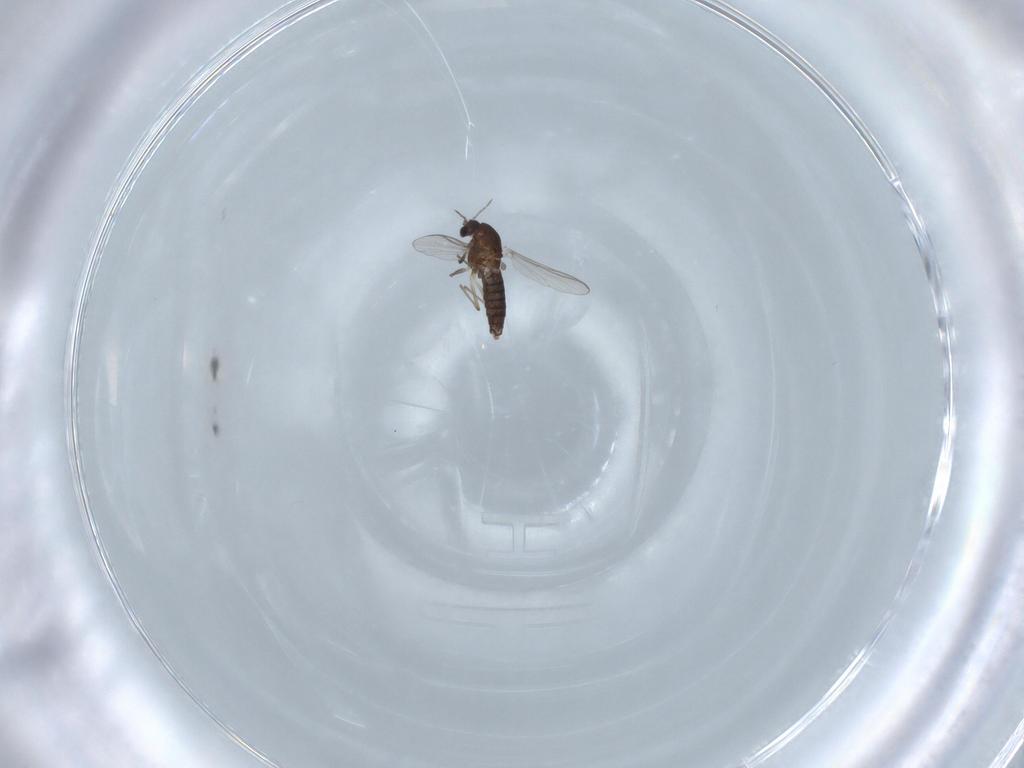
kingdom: Animalia
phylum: Arthropoda
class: Insecta
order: Diptera
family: Chironomidae
